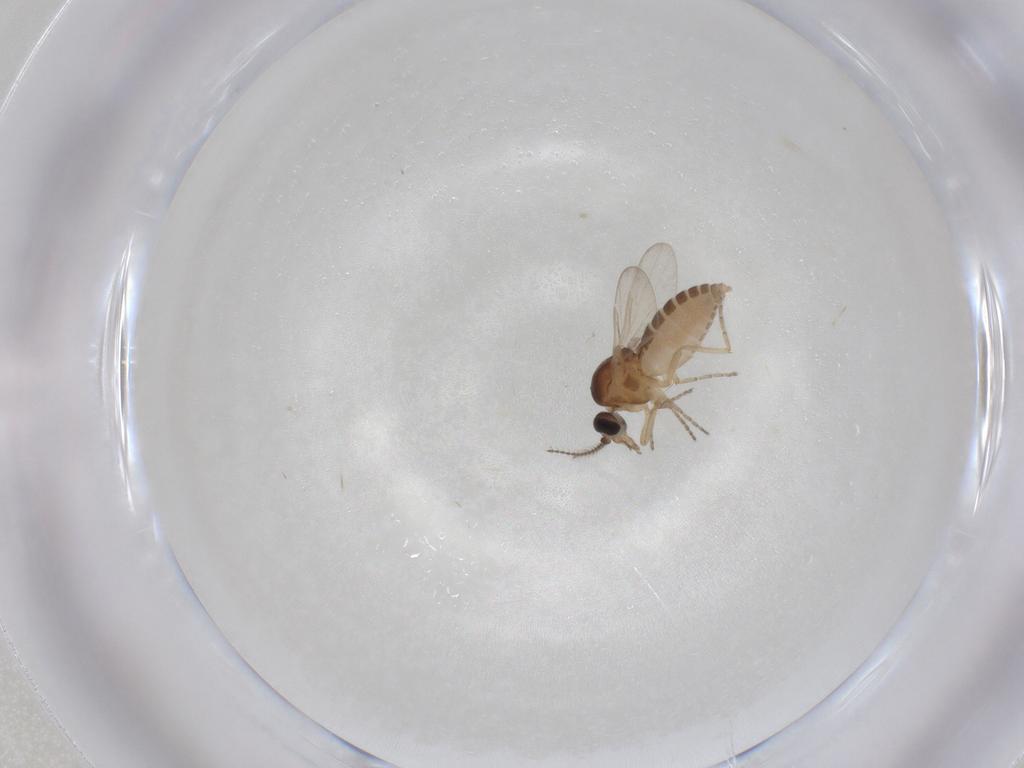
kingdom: Animalia
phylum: Arthropoda
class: Insecta
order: Diptera
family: Ceratopogonidae
